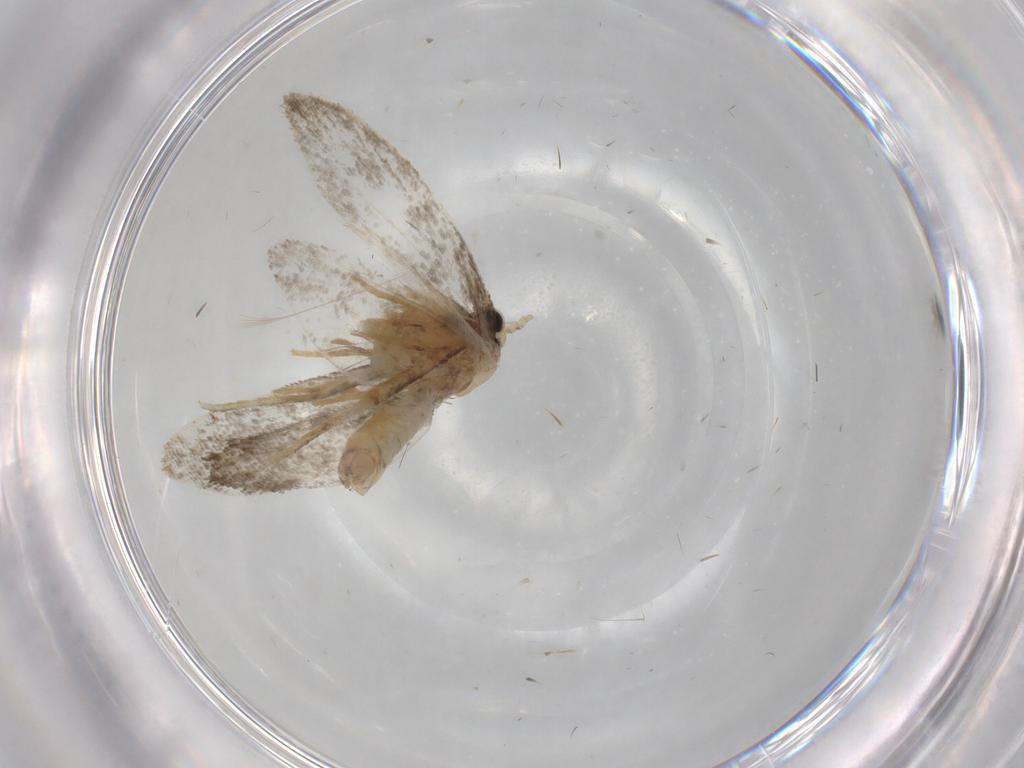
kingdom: Animalia
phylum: Arthropoda
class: Insecta
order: Lepidoptera
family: Psychidae
